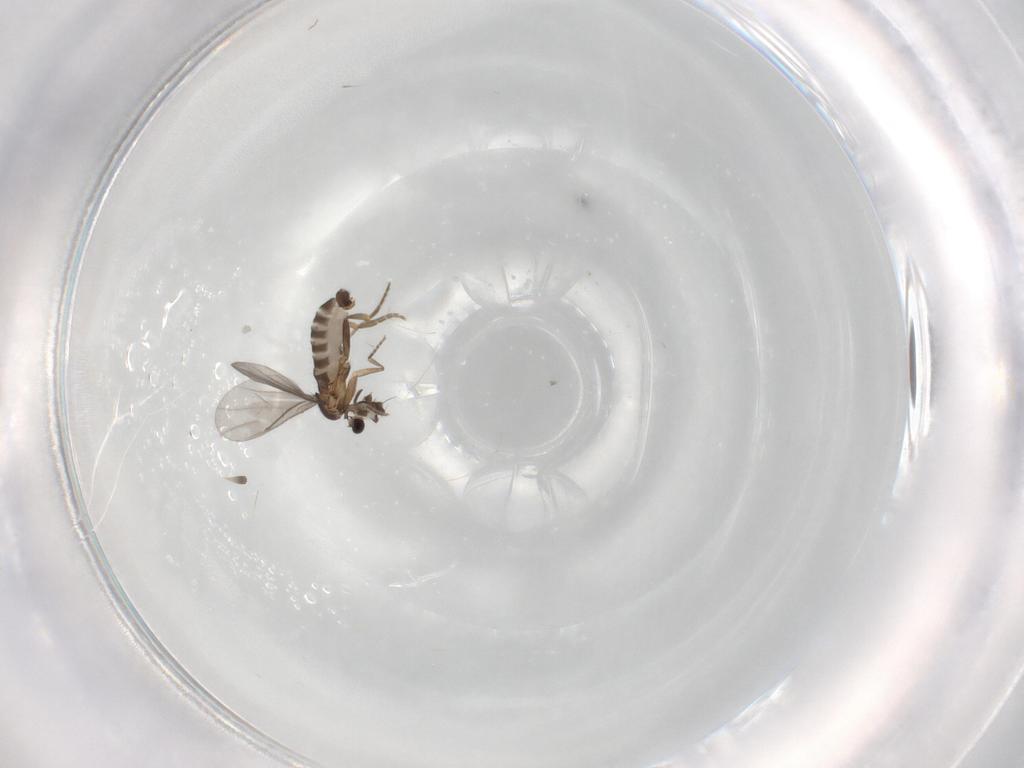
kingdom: Animalia
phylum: Arthropoda
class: Insecta
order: Diptera
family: Chironomidae
